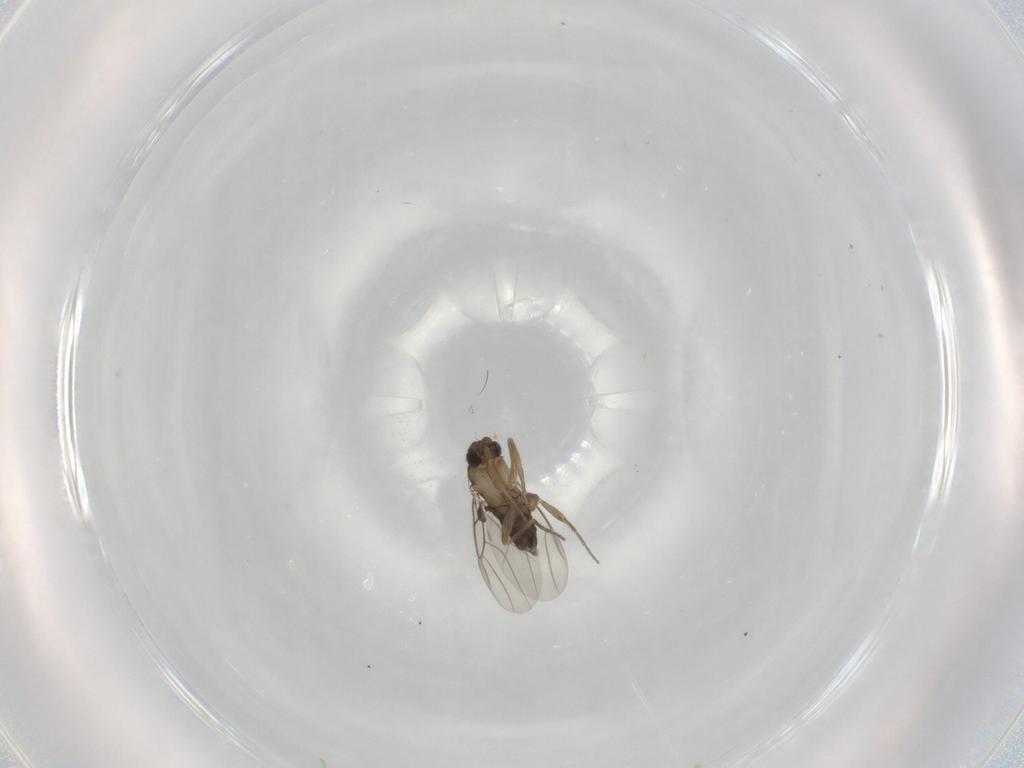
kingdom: Animalia
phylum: Arthropoda
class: Insecta
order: Diptera
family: Phoridae
